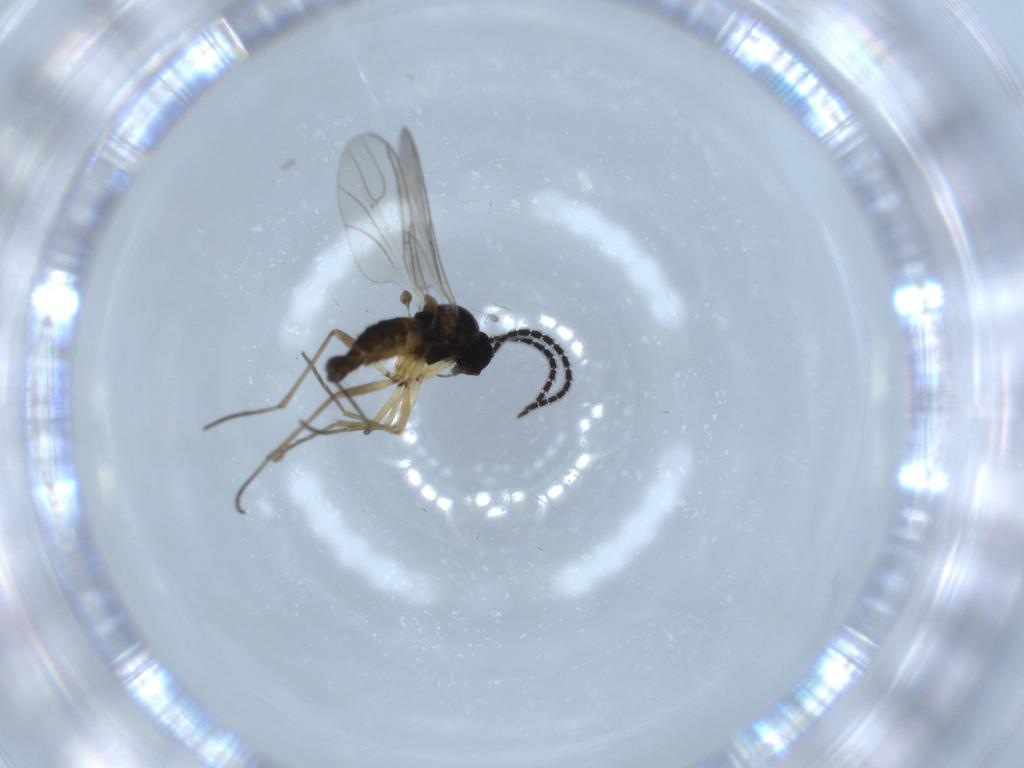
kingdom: Animalia
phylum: Arthropoda
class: Insecta
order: Diptera
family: Sciaridae
